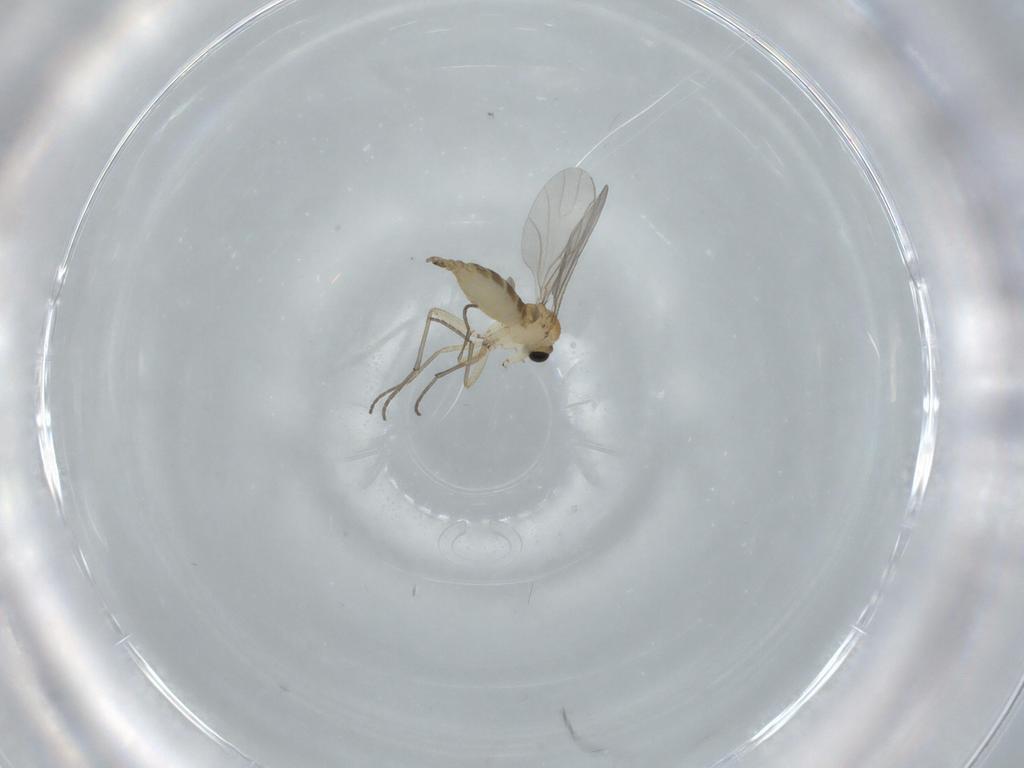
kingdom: Animalia
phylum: Arthropoda
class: Insecta
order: Diptera
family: Sciaridae
